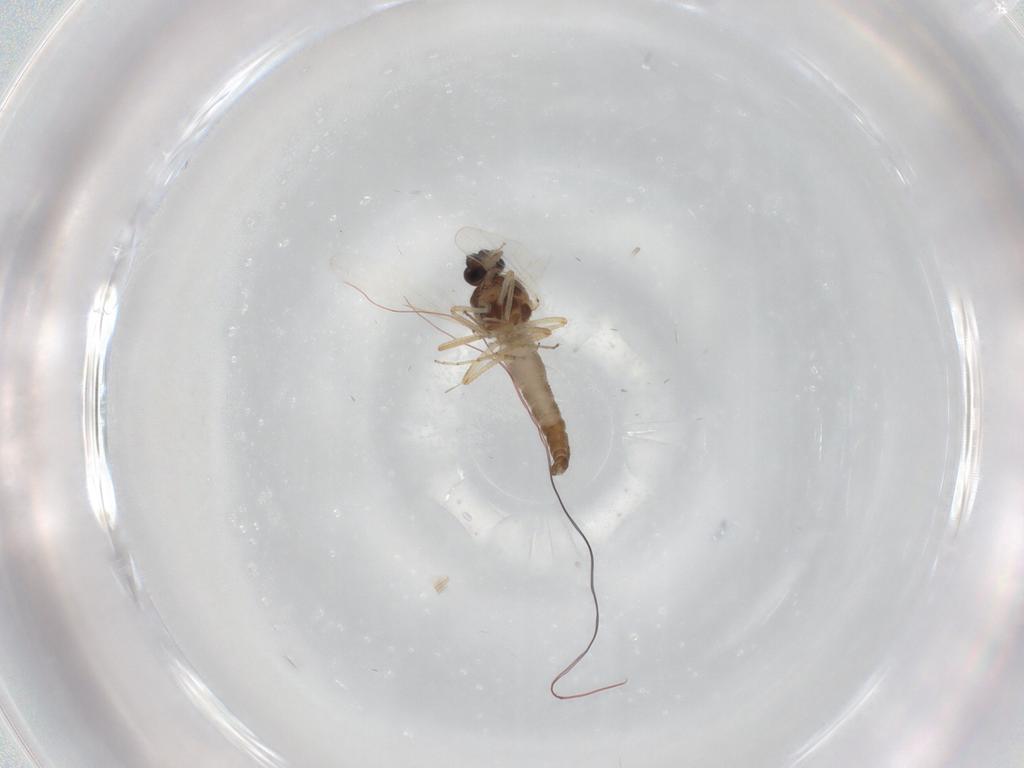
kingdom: Animalia
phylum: Arthropoda
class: Insecta
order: Diptera
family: Ceratopogonidae
